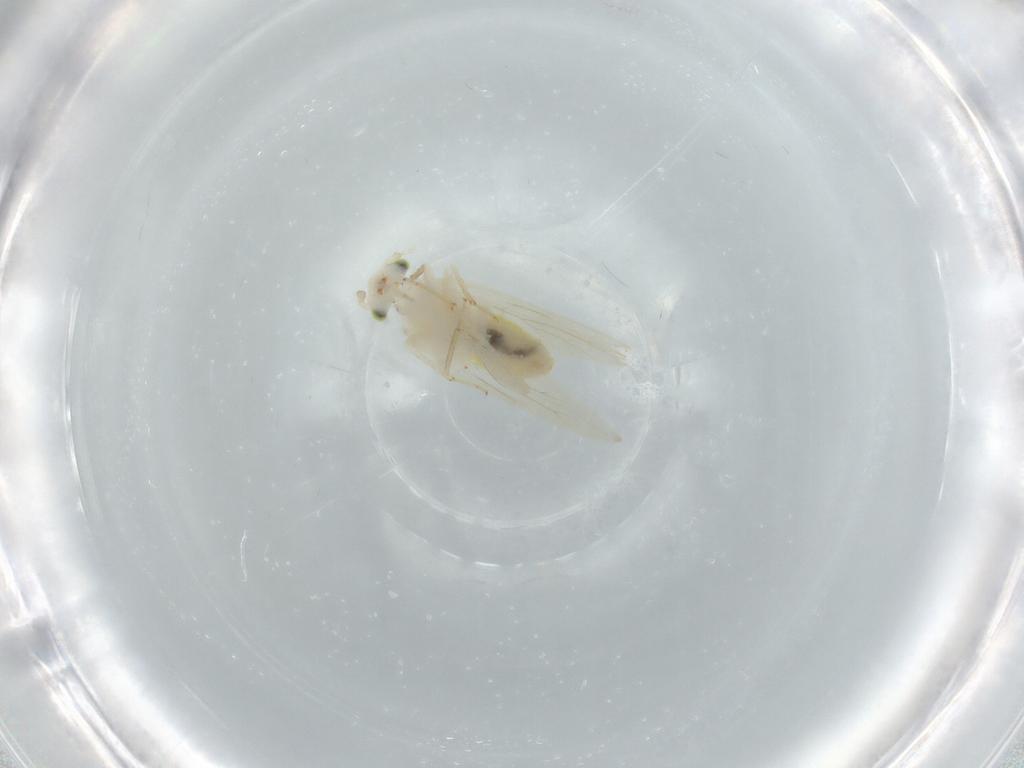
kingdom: Animalia
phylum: Arthropoda
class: Insecta
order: Psocodea
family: Lepidopsocidae
